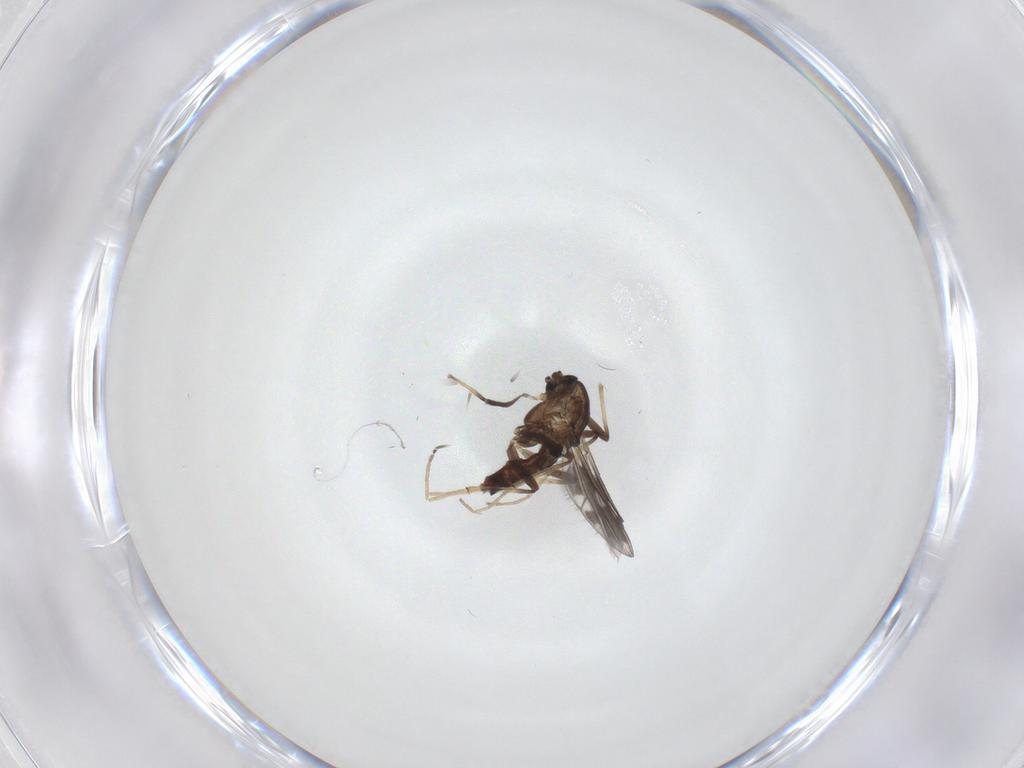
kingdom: Animalia
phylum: Arthropoda
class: Insecta
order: Diptera
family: Chironomidae
